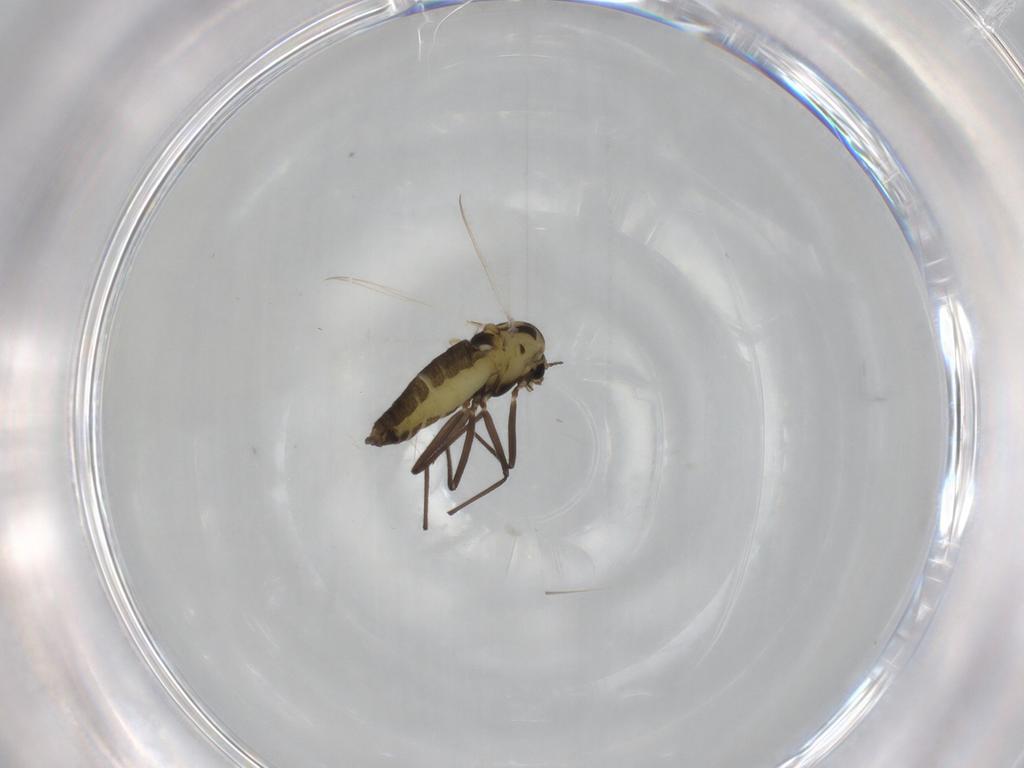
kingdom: Animalia
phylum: Arthropoda
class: Insecta
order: Diptera
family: Chironomidae
